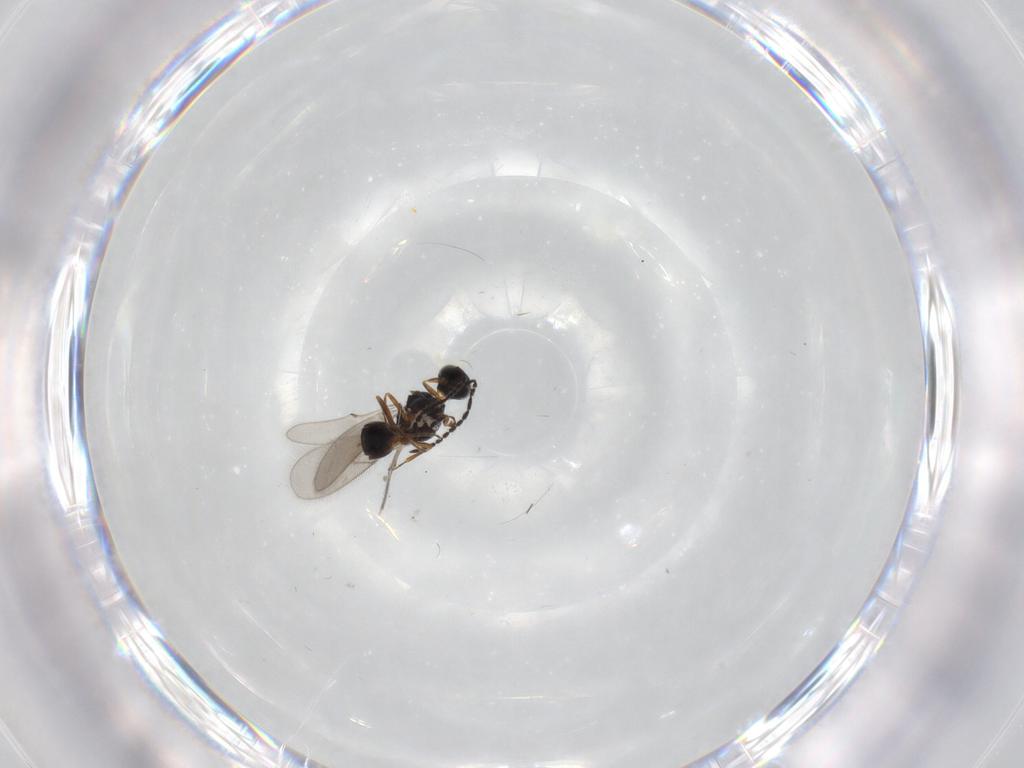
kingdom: Animalia
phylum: Arthropoda
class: Insecta
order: Hymenoptera
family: Scelionidae
